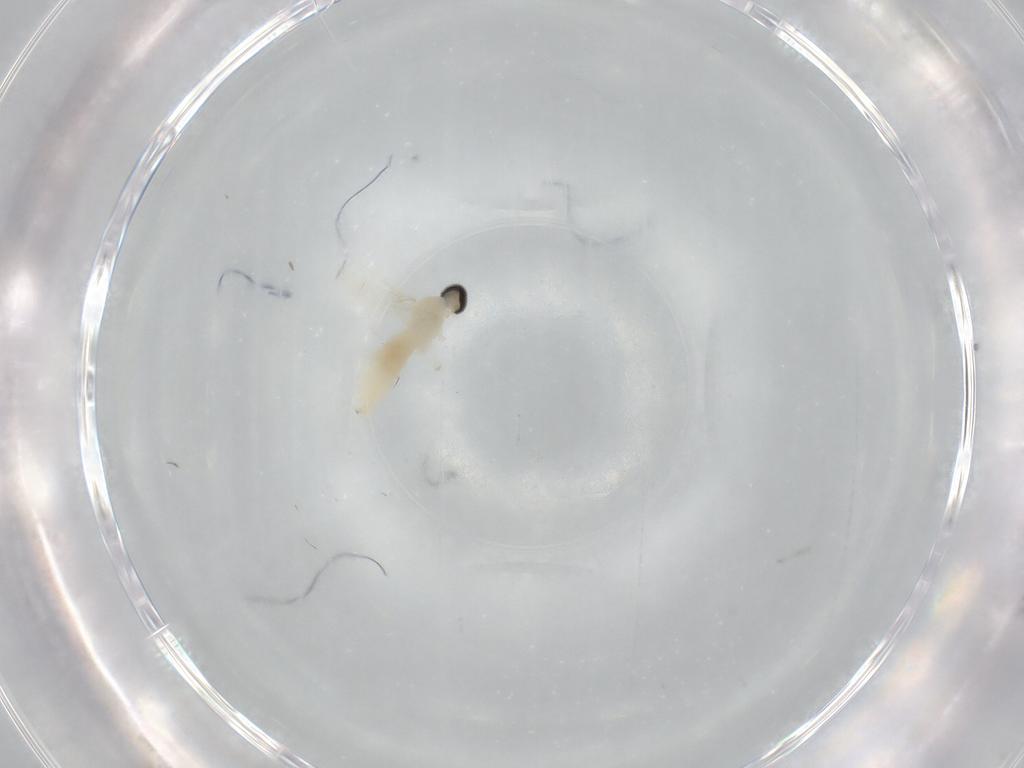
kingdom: Animalia
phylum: Arthropoda
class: Insecta
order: Diptera
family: Cecidomyiidae
